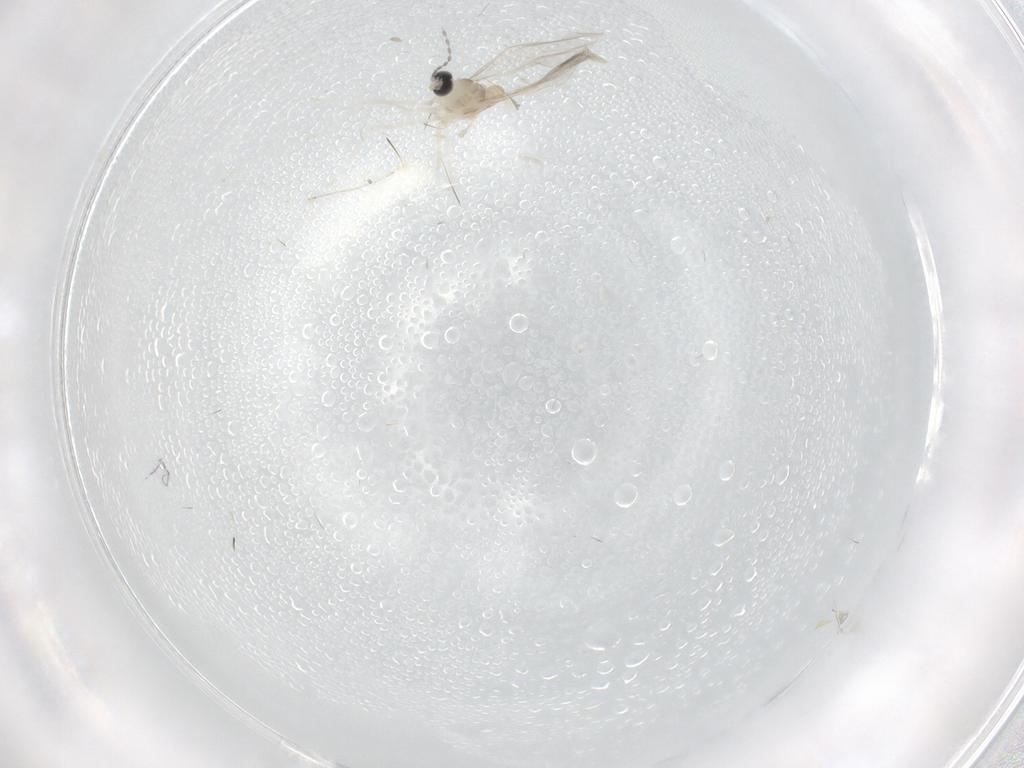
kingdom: Animalia
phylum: Arthropoda
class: Insecta
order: Diptera
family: Cecidomyiidae
